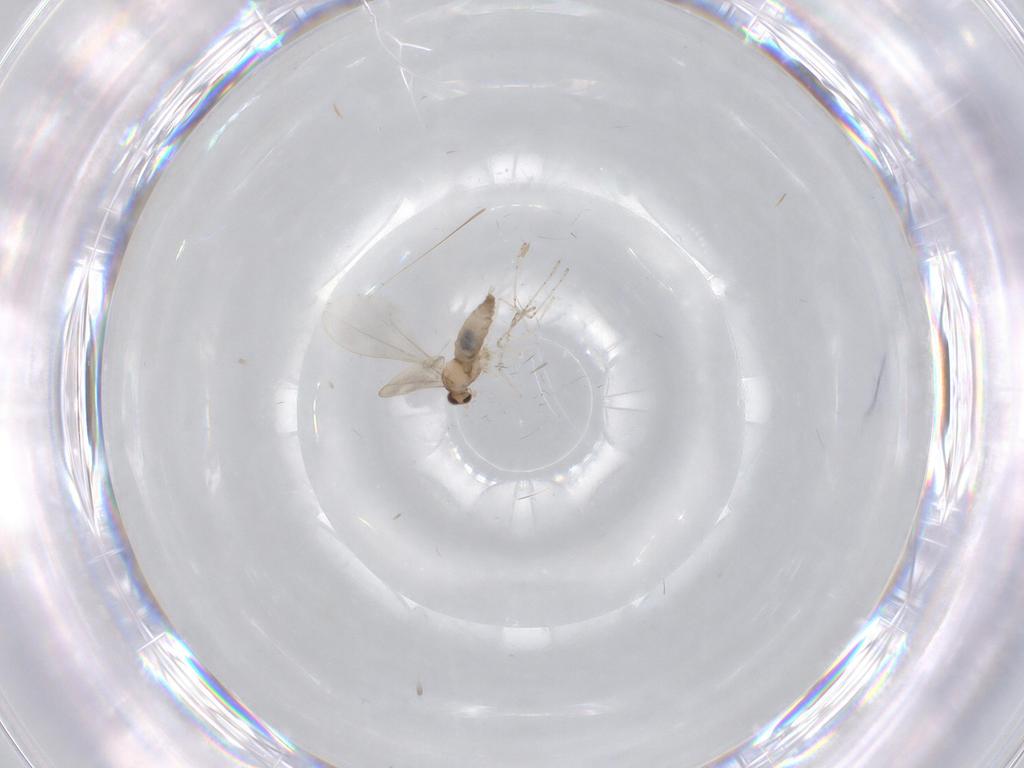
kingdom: Animalia
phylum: Arthropoda
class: Insecta
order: Diptera
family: Cecidomyiidae
